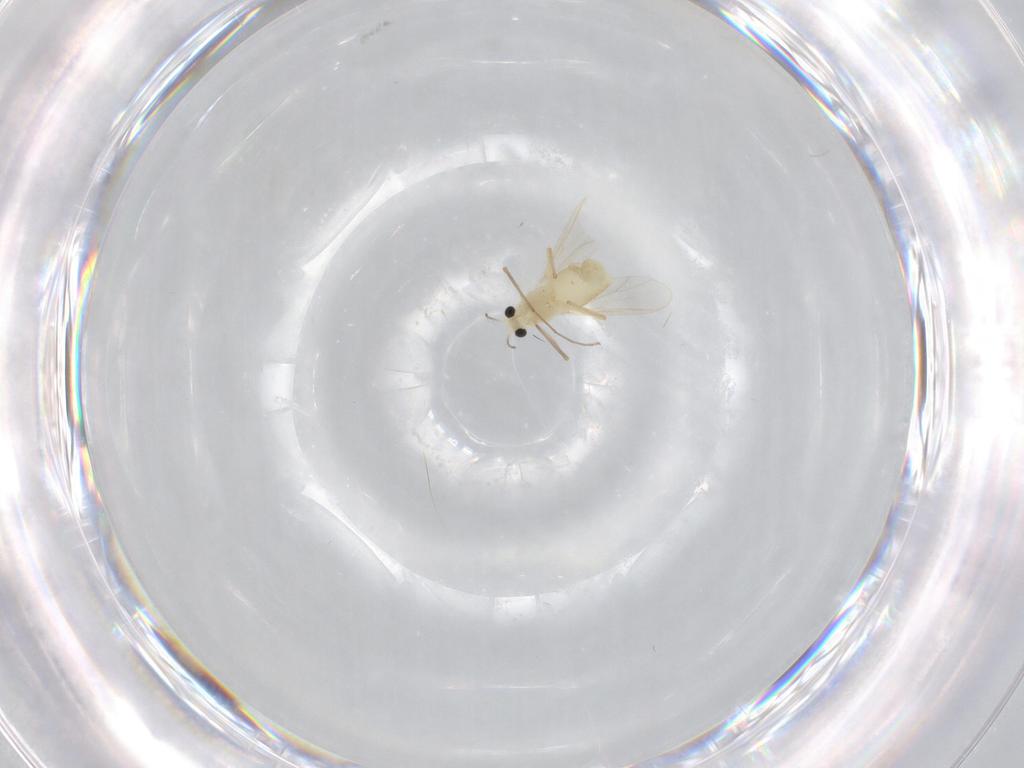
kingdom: Animalia
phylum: Arthropoda
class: Insecta
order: Diptera
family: Chironomidae
